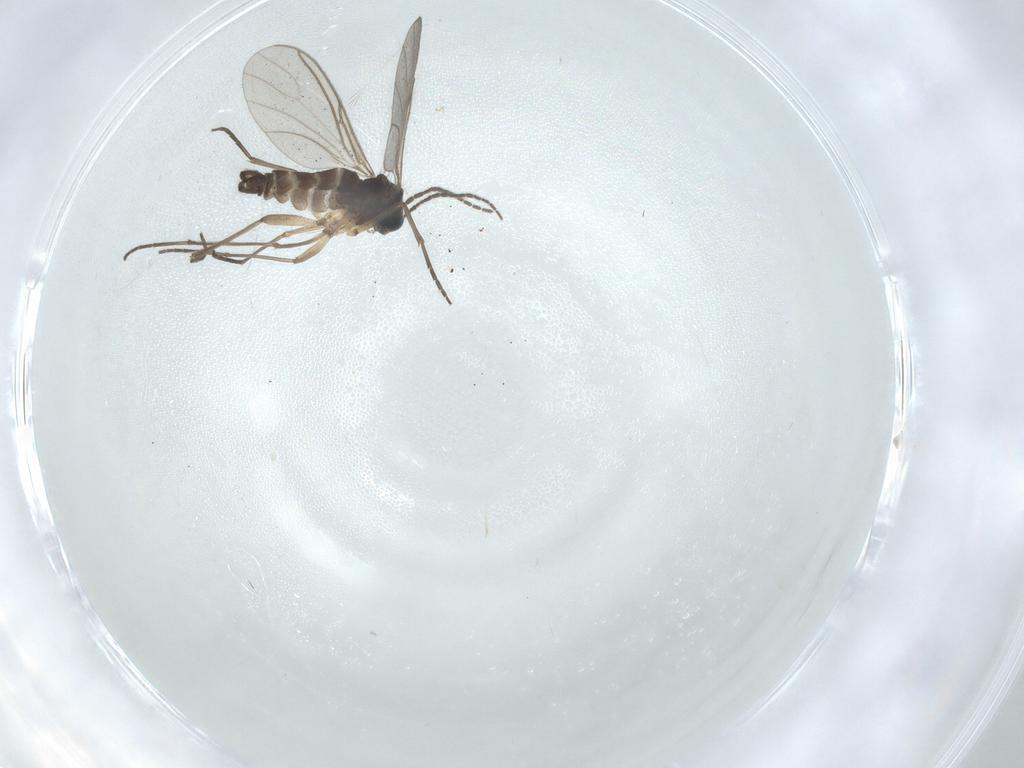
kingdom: Animalia
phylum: Arthropoda
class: Insecta
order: Diptera
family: Sciaridae
